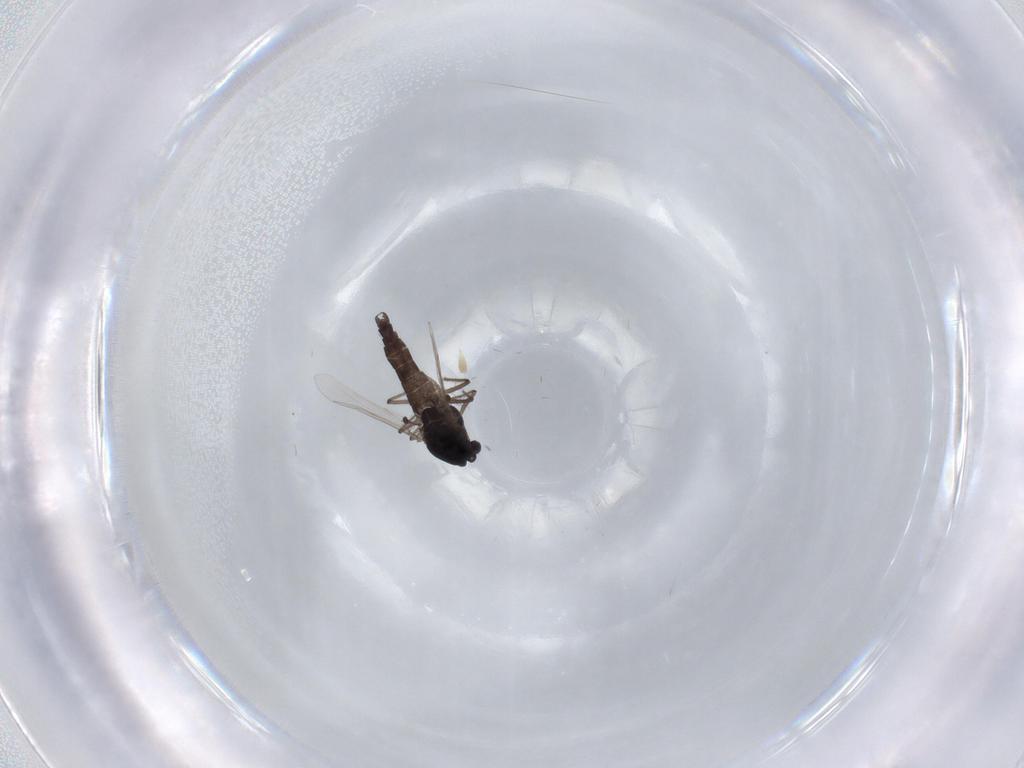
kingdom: Animalia
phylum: Arthropoda
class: Insecta
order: Diptera
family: Chironomidae
